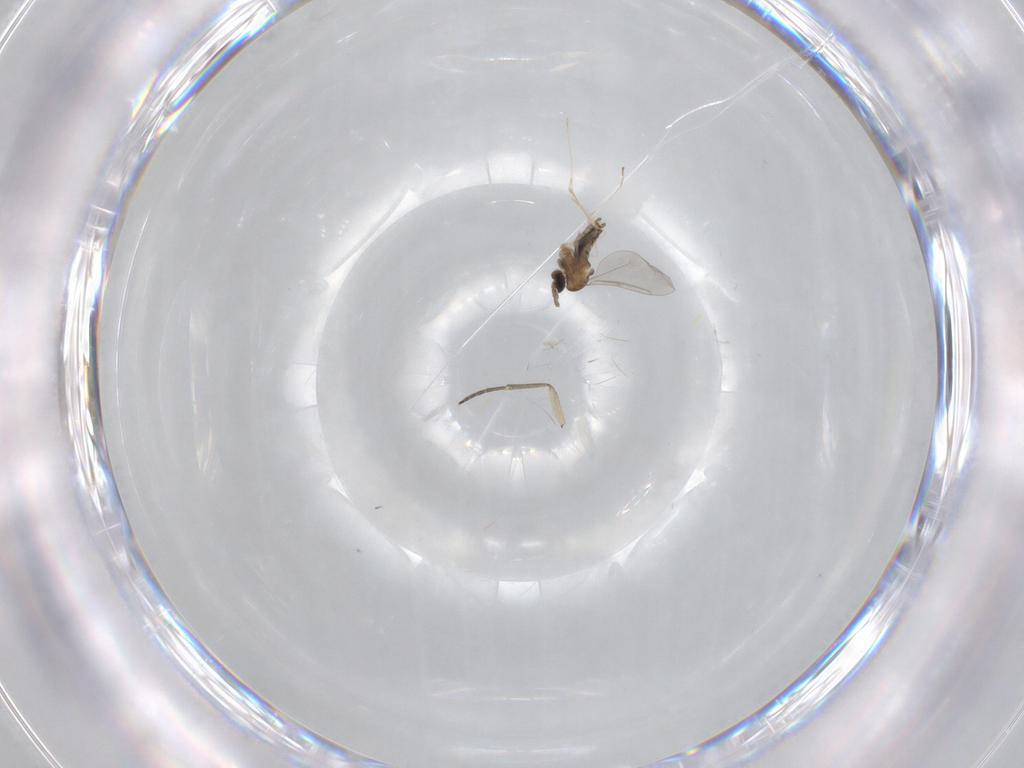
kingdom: Animalia
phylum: Arthropoda
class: Insecta
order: Diptera
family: Cecidomyiidae
